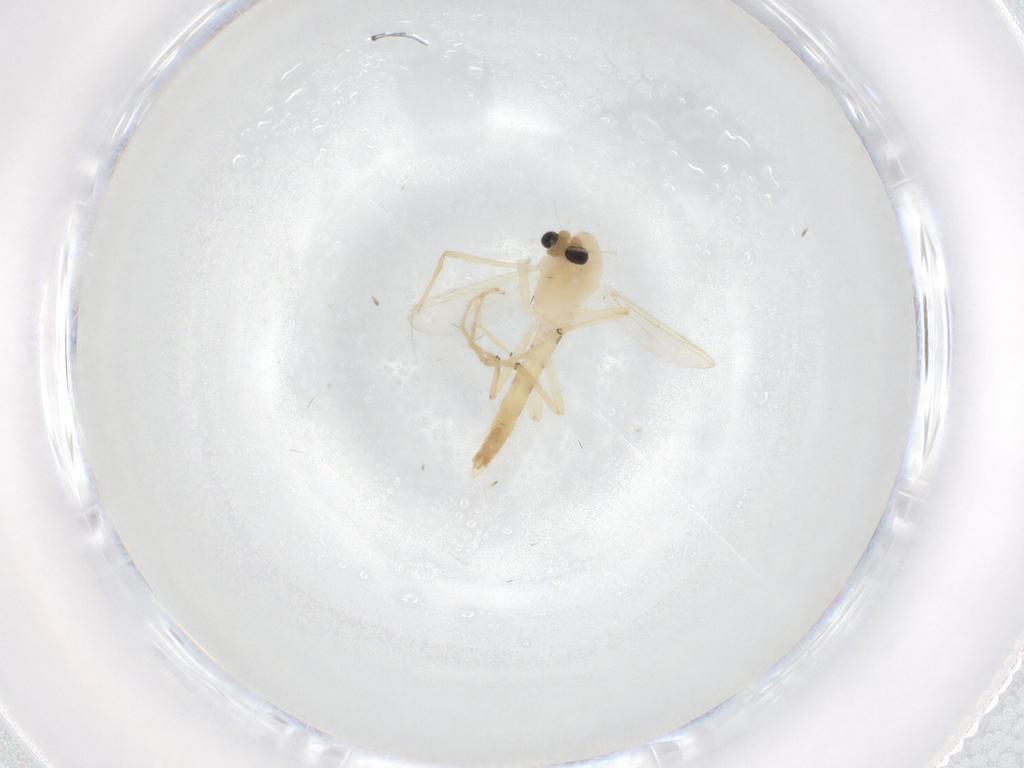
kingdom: Animalia
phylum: Arthropoda
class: Insecta
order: Diptera
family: Chironomidae
